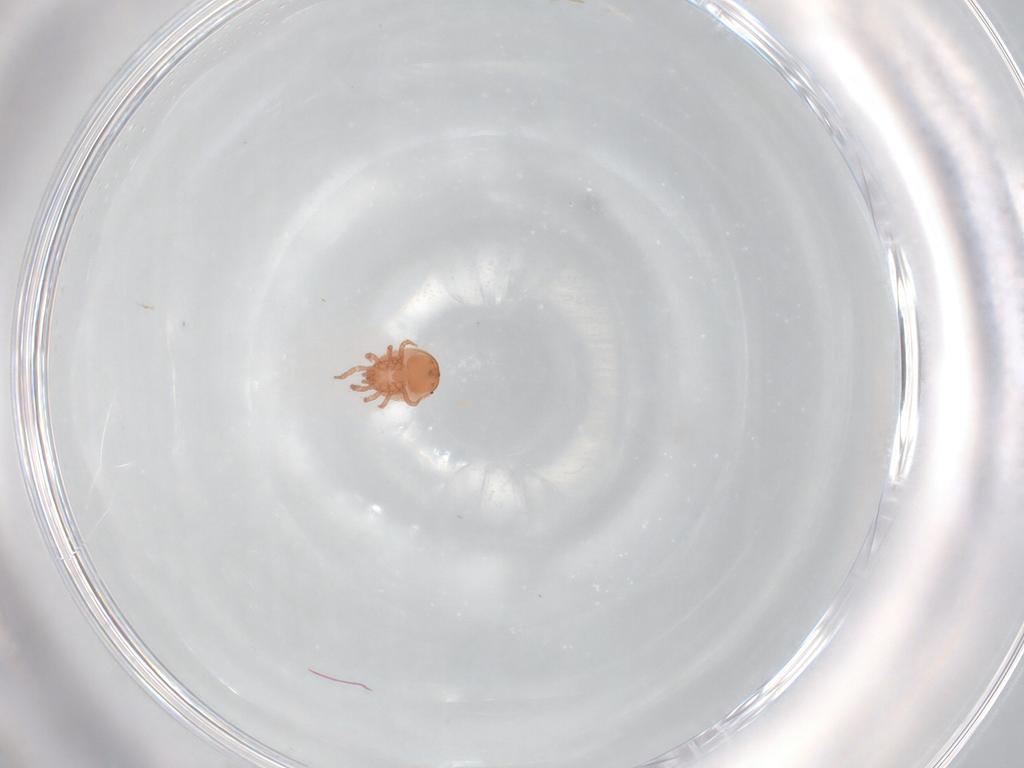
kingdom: Animalia
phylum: Arthropoda
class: Arachnida
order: Mesostigmata
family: Zerconidae
